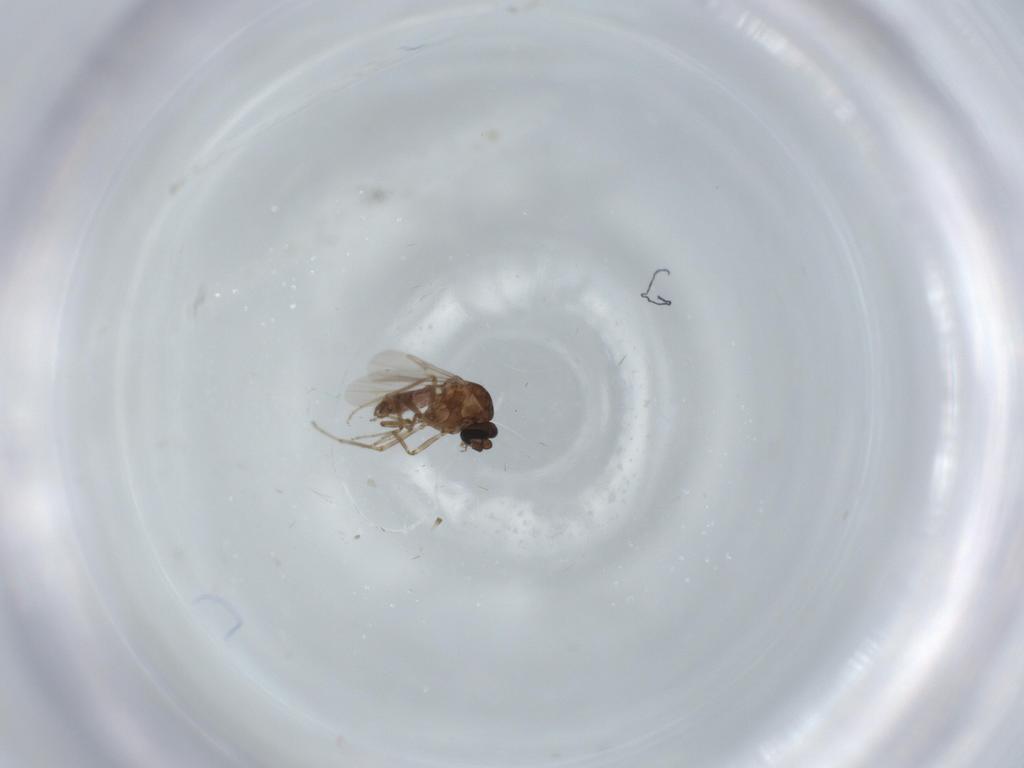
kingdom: Animalia
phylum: Arthropoda
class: Insecta
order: Diptera
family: Ceratopogonidae
